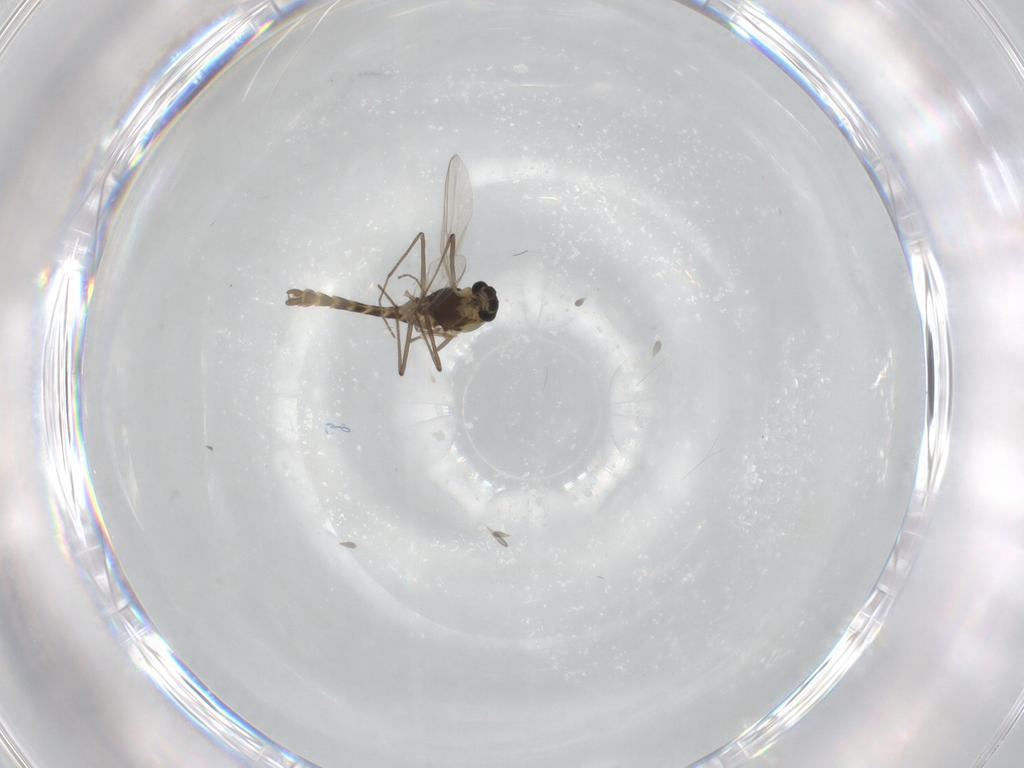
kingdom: Animalia
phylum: Arthropoda
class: Insecta
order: Diptera
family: Chironomidae
